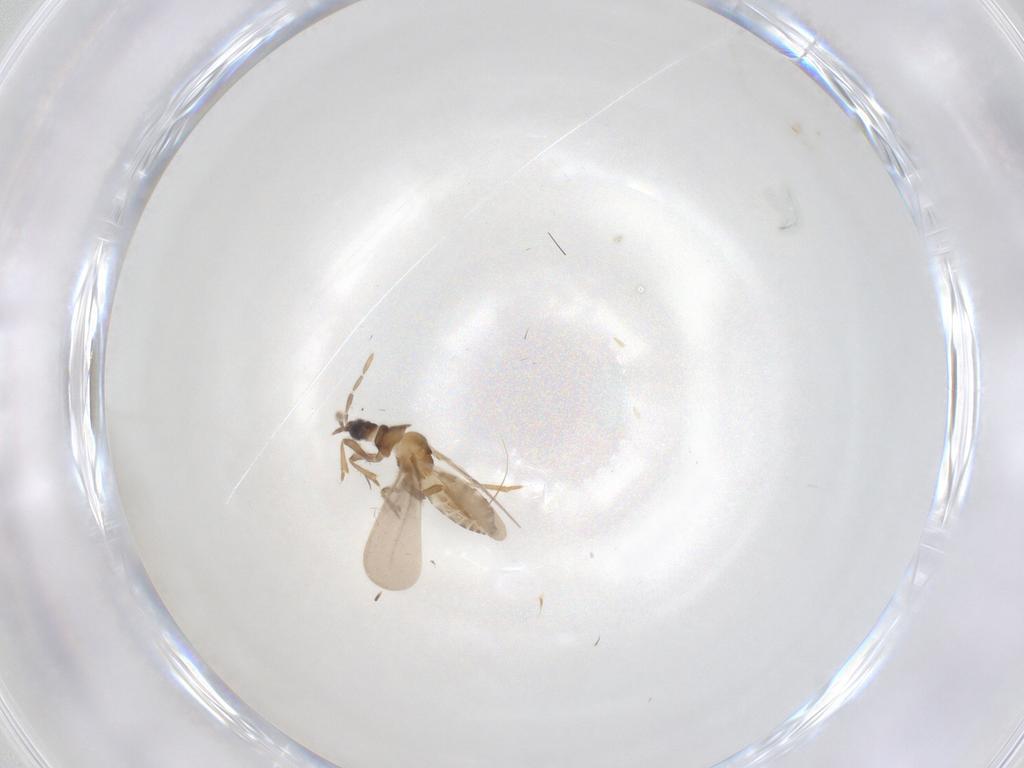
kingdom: Animalia
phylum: Arthropoda
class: Insecta
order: Hemiptera
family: Enicocephalidae
